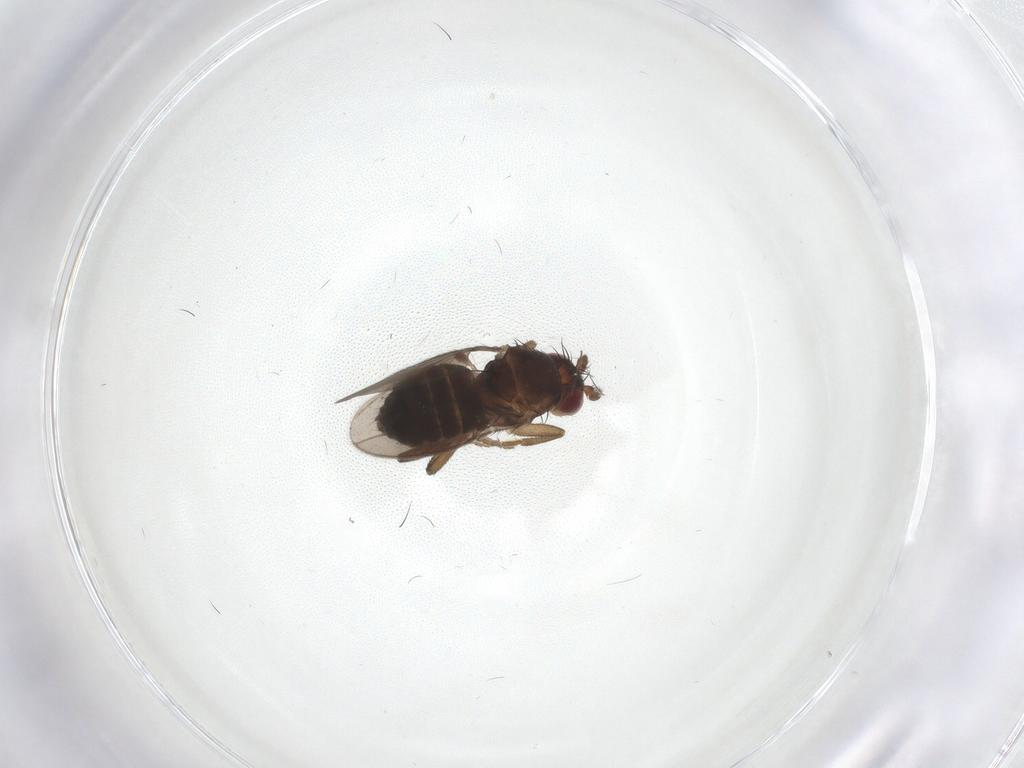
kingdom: Animalia
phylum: Arthropoda
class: Insecta
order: Diptera
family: Sphaeroceridae
